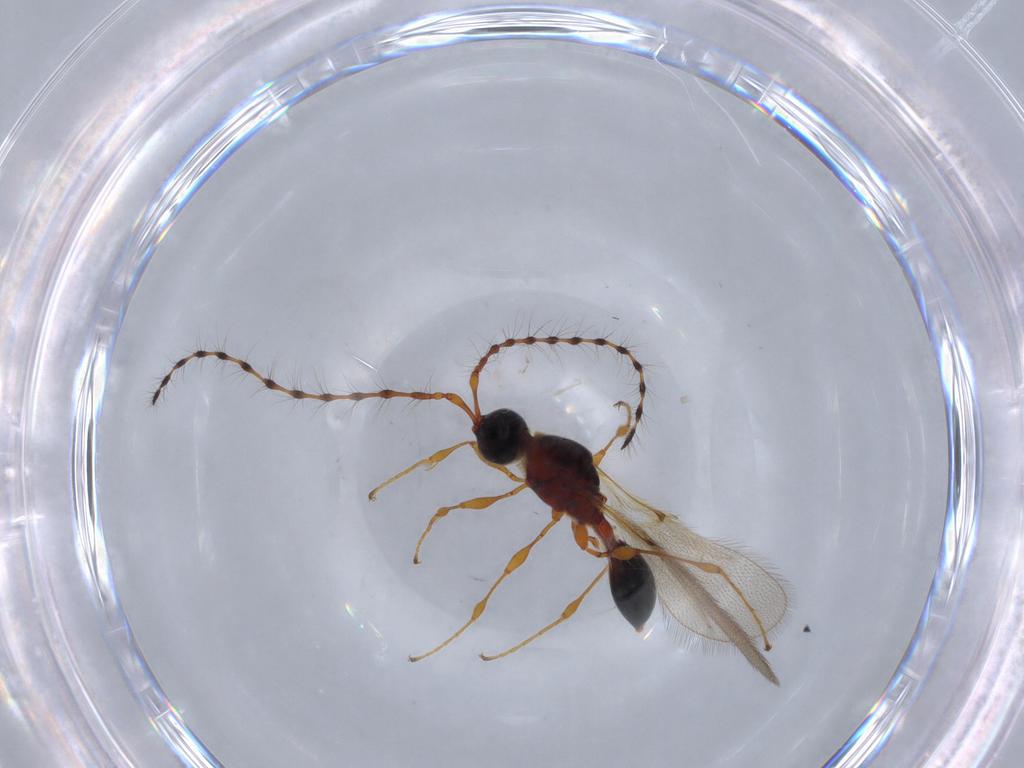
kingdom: Animalia
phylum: Arthropoda
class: Insecta
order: Hymenoptera
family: Diapriidae
